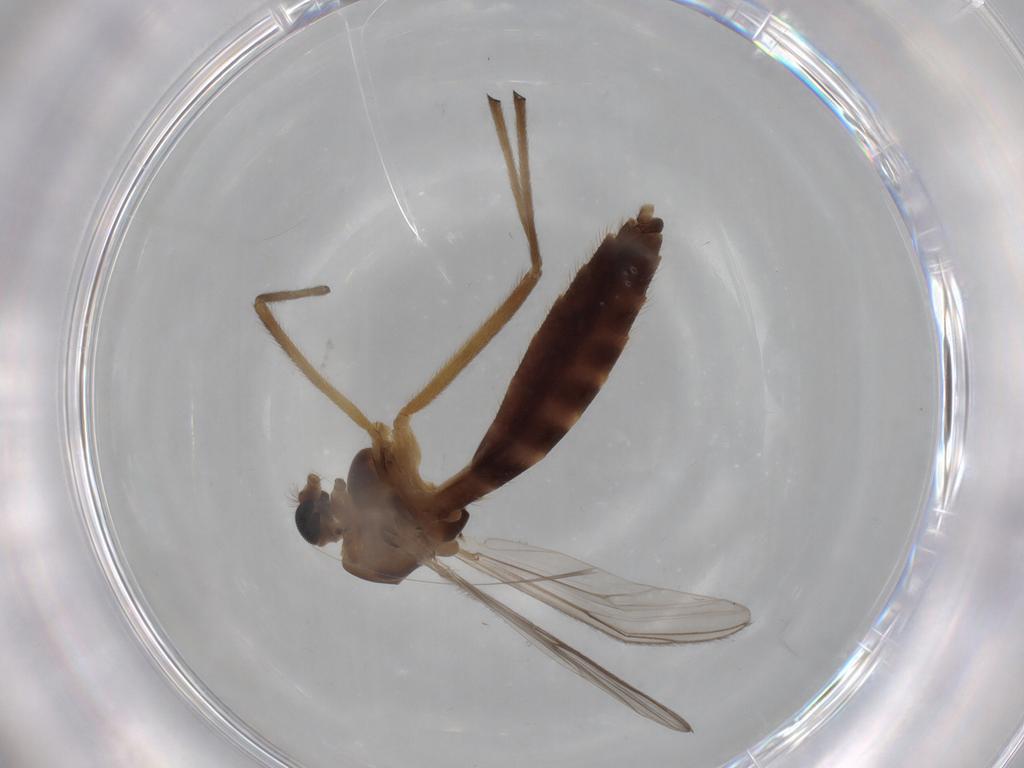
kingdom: Animalia
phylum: Arthropoda
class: Insecta
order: Diptera
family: Chironomidae
